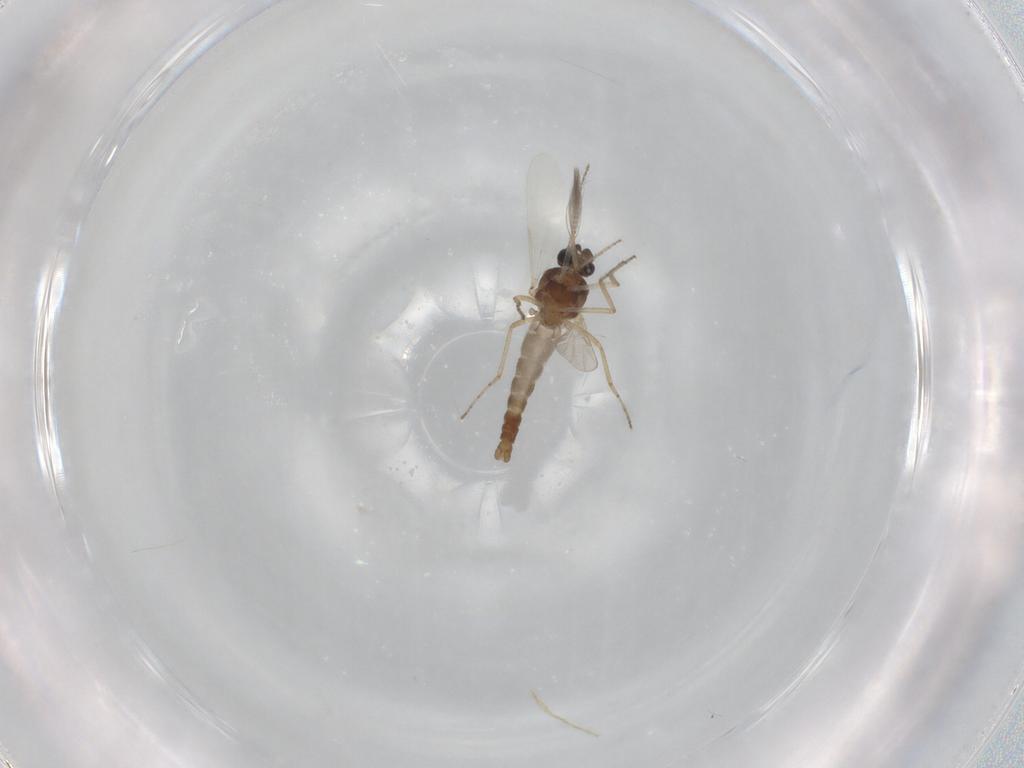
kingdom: Animalia
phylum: Arthropoda
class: Insecta
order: Diptera
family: Ceratopogonidae
